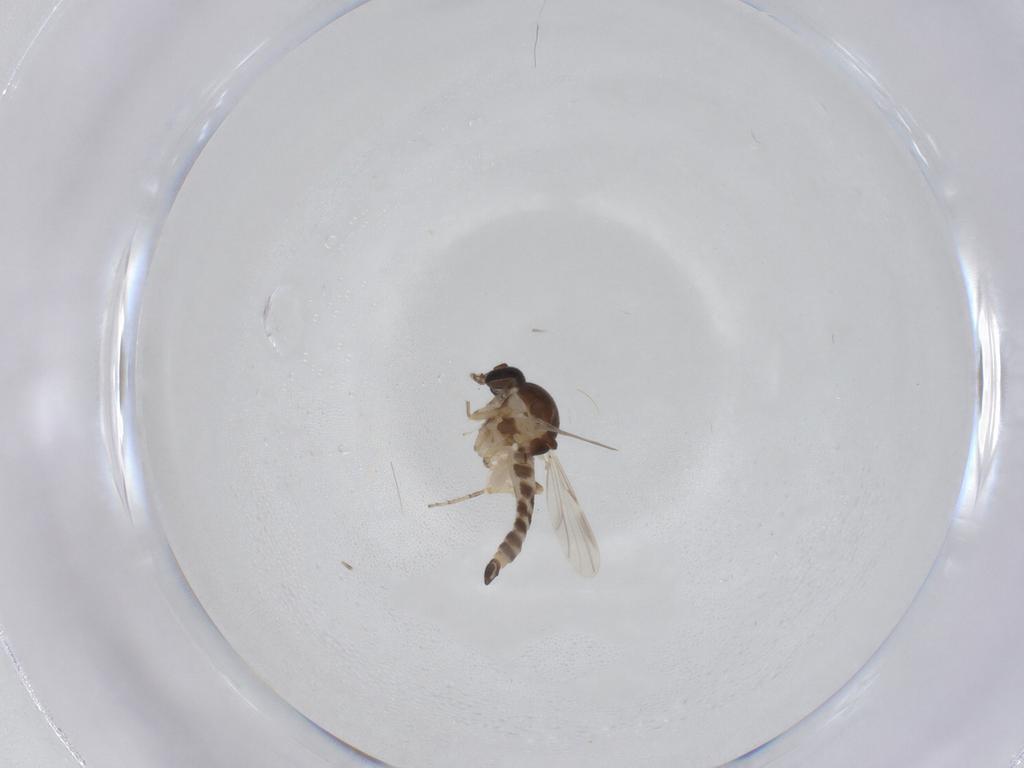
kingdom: Animalia
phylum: Arthropoda
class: Insecta
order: Diptera
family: Ceratopogonidae
